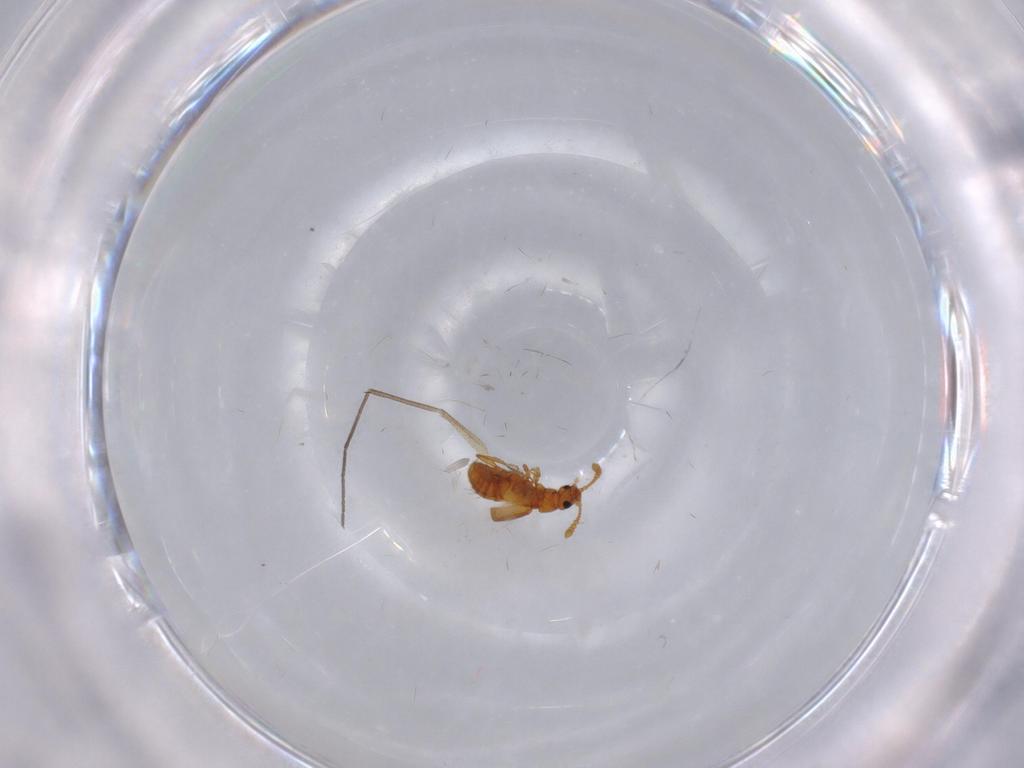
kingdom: Animalia
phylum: Arthropoda
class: Insecta
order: Coleoptera
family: Staphylinidae
